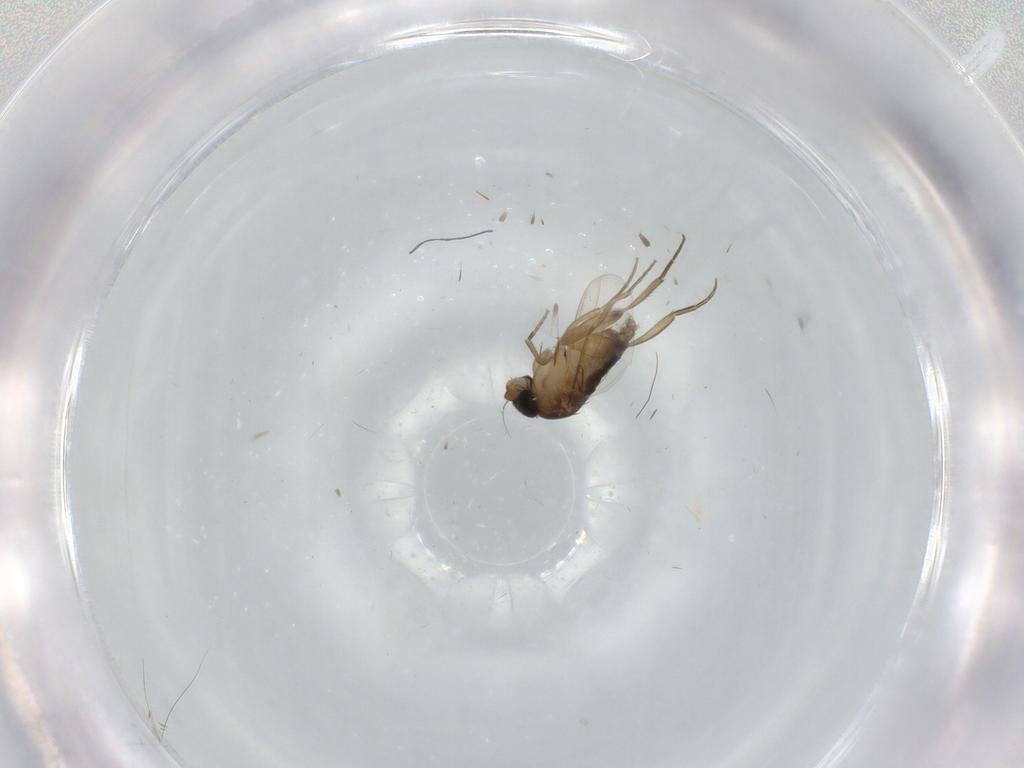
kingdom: Animalia
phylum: Arthropoda
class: Insecta
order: Diptera
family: Phoridae
